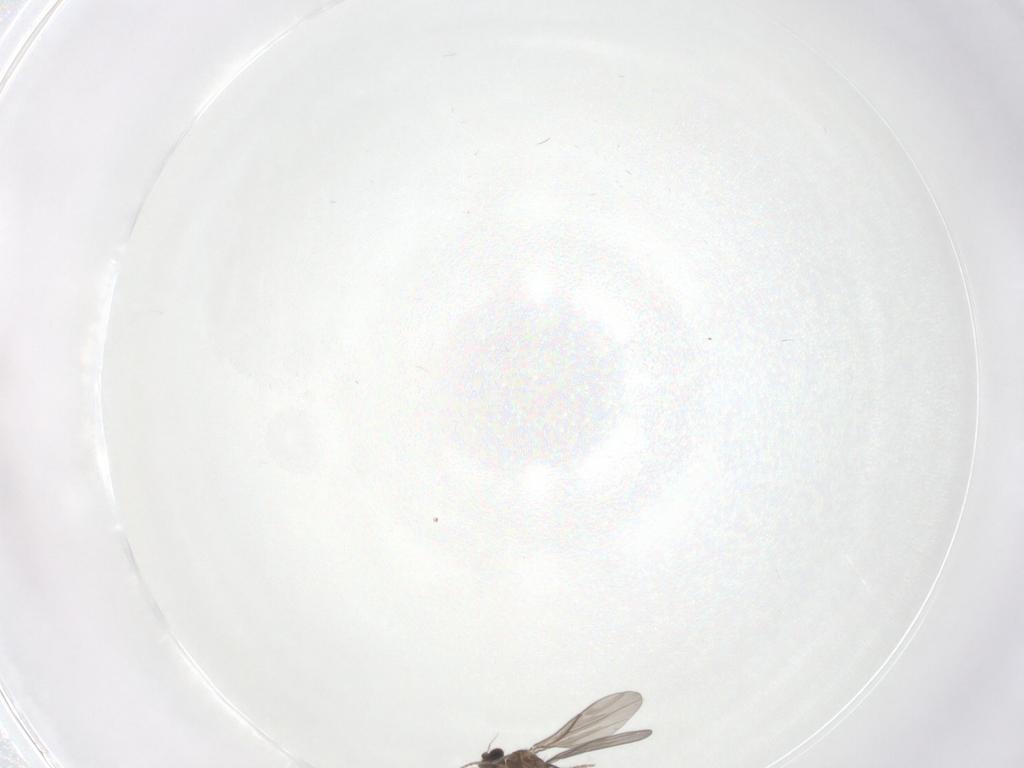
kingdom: Animalia
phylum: Arthropoda
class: Insecta
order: Diptera
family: Cecidomyiidae
